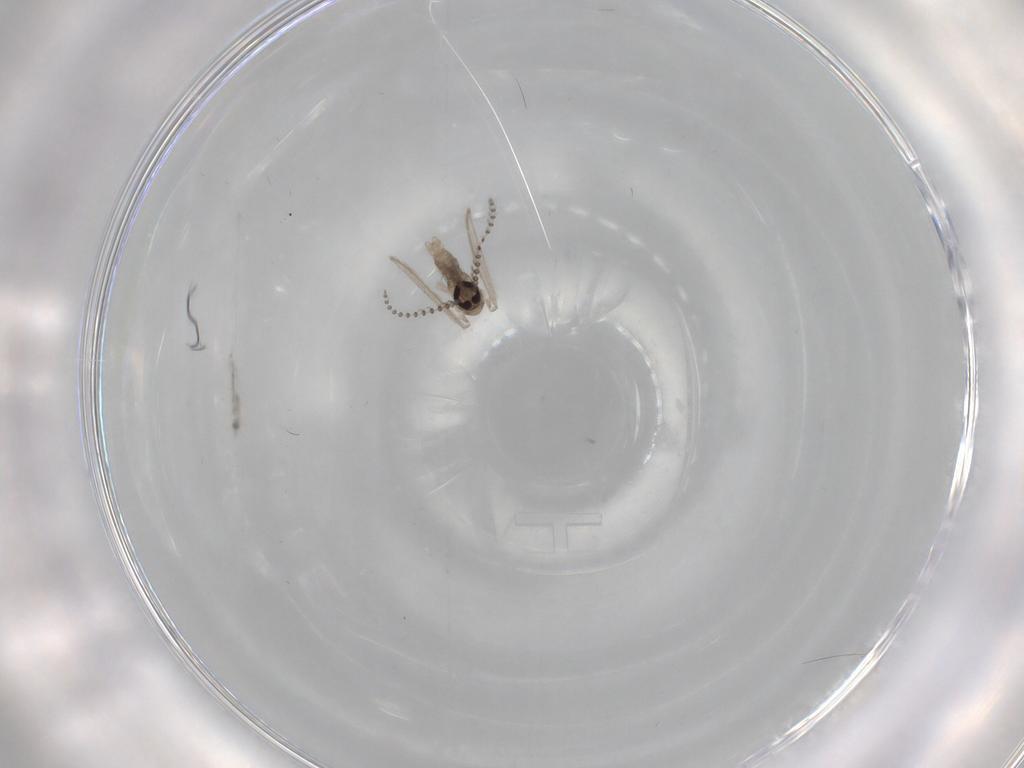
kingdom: Animalia
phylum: Arthropoda
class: Insecta
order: Diptera
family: Psychodidae
